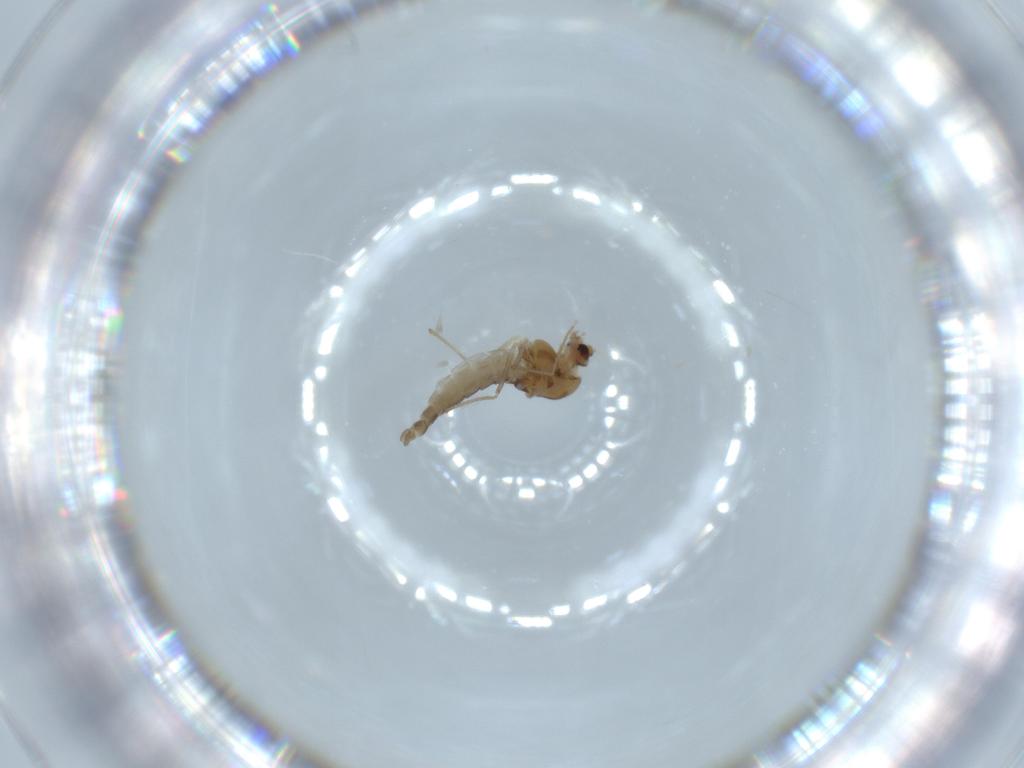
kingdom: Animalia
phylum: Arthropoda
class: Insecta
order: Diptera
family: Chironomidae
